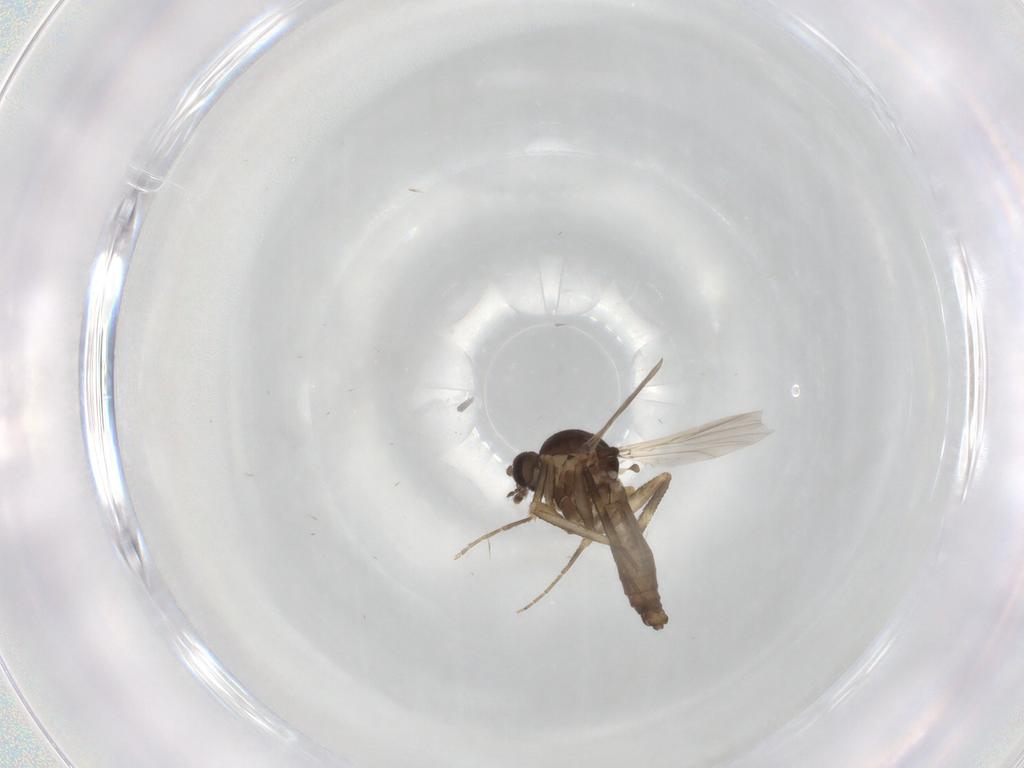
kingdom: Animalia
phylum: Arthropoda
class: Insecta
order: Diptera
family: Ceratopogonidae
